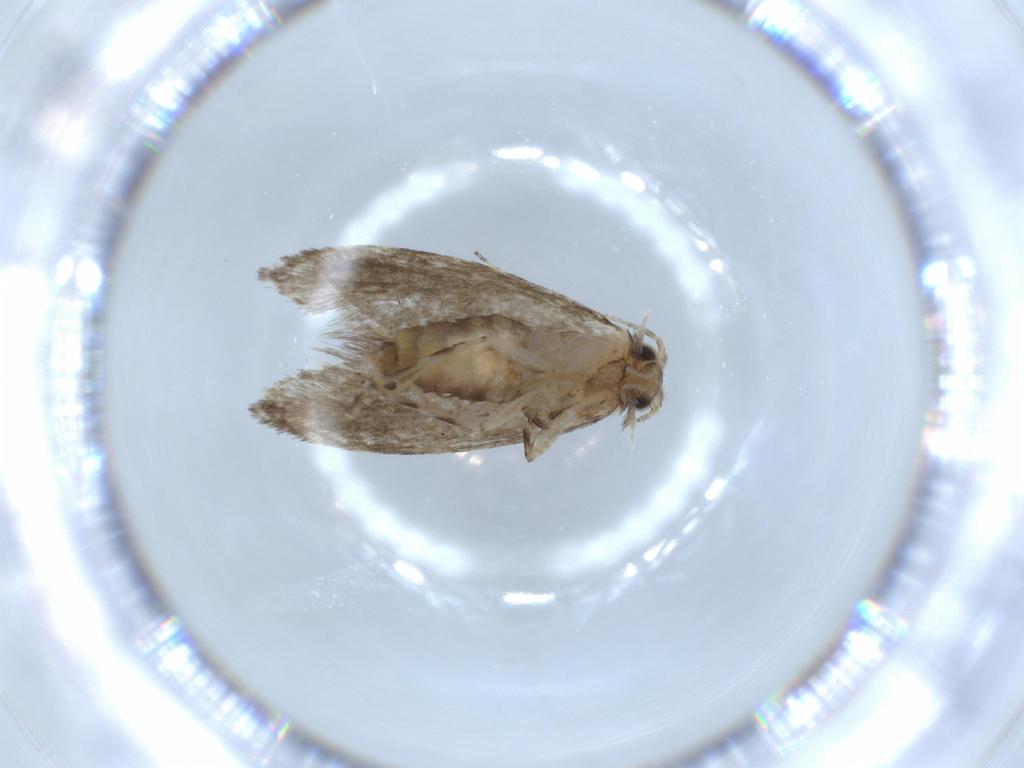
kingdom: Animalia
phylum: Arthropoda
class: Insecta
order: Lepidoptera
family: Tineidae
